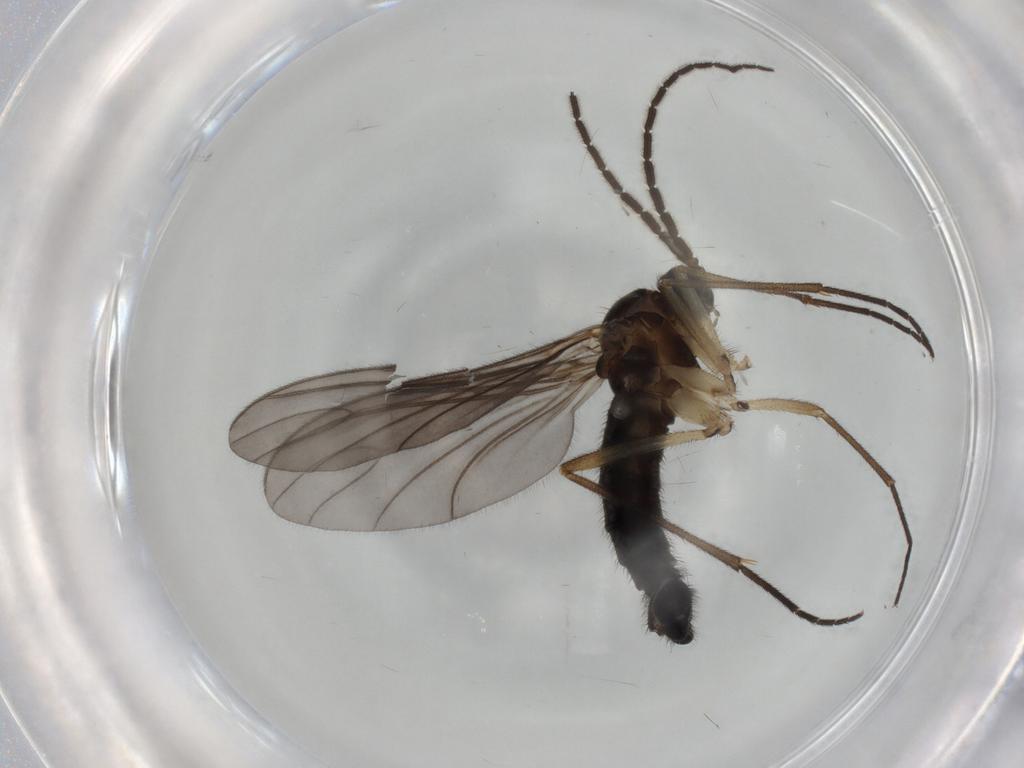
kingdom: Animalia
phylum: Arthropoda
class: Insecta
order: Diptera
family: Sciaridae
